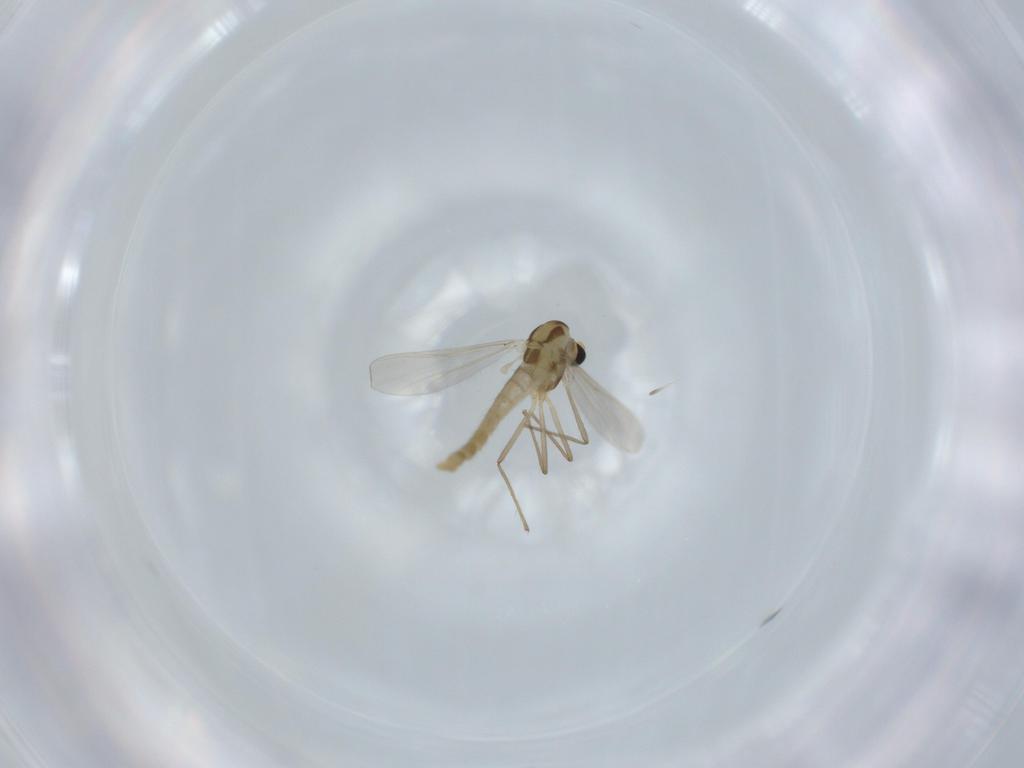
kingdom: Animalia
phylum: Arthropoda
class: Insecta
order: Diptera
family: Chironomidae
